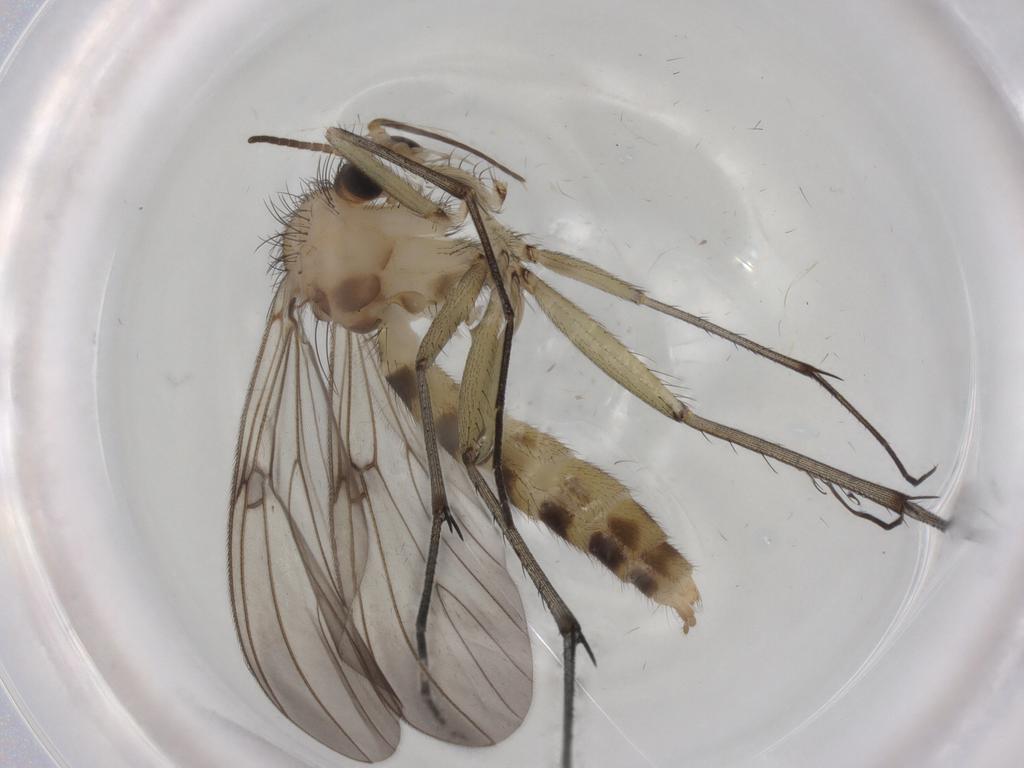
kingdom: Animalia
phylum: Arthropoda
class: Insecta
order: Diptera
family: Mycetophilidae
